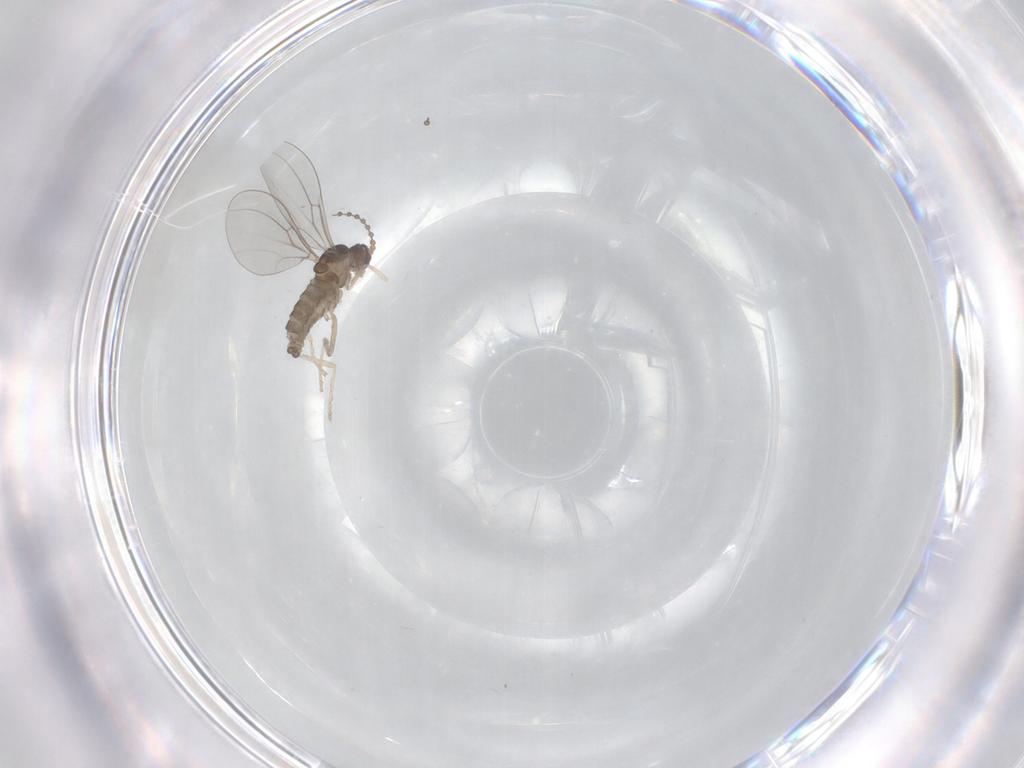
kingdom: Animalia
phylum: Arthropoda
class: Insecta
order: Diptera
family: Cecidomyiidae
